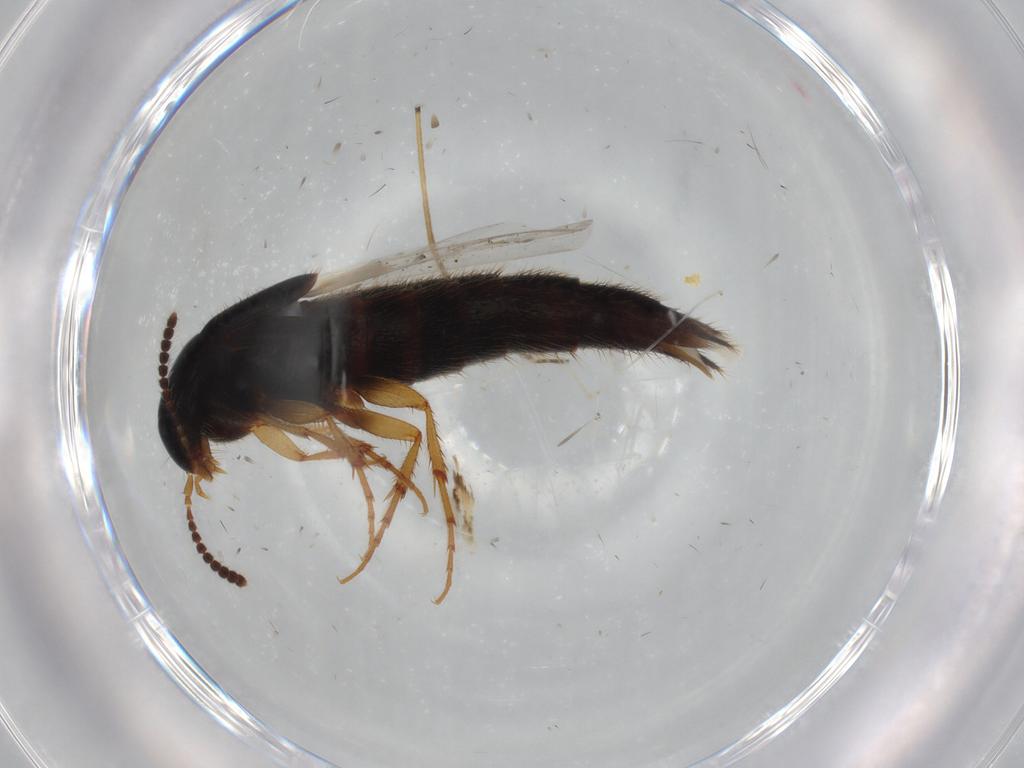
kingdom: Animalia
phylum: Arthropoda
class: Insecta
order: Coleoptera
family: Staphylinidae
